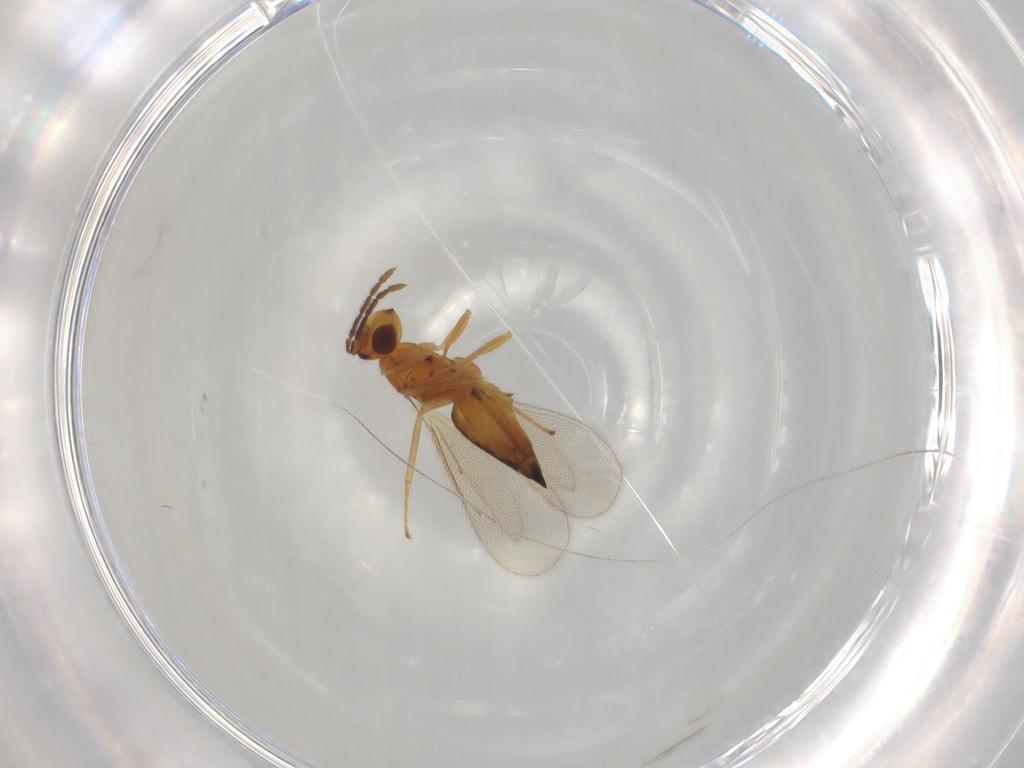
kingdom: Animalia
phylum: Arthropoda
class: Insecta
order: Hymenoptera
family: Eulophidae
